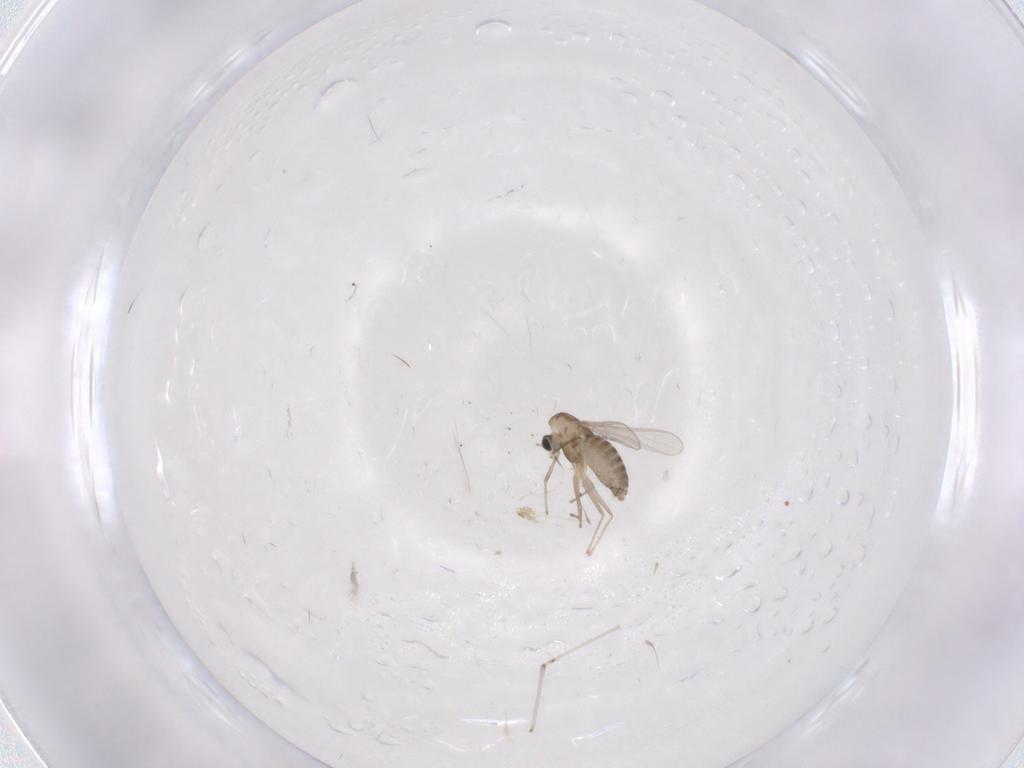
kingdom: Animalia
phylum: Arthropoda
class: Insecta
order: Diptera
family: Chironomidae
